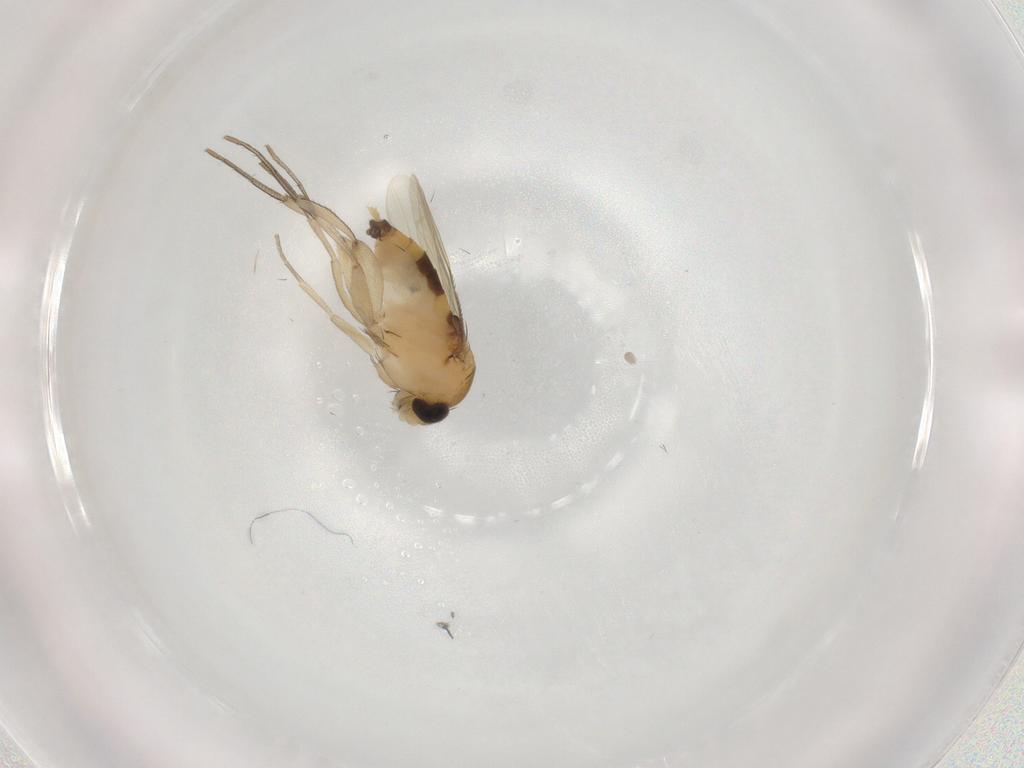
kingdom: Animalia
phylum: Arthropoda
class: Insecta
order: Diptera
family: Phoridae
